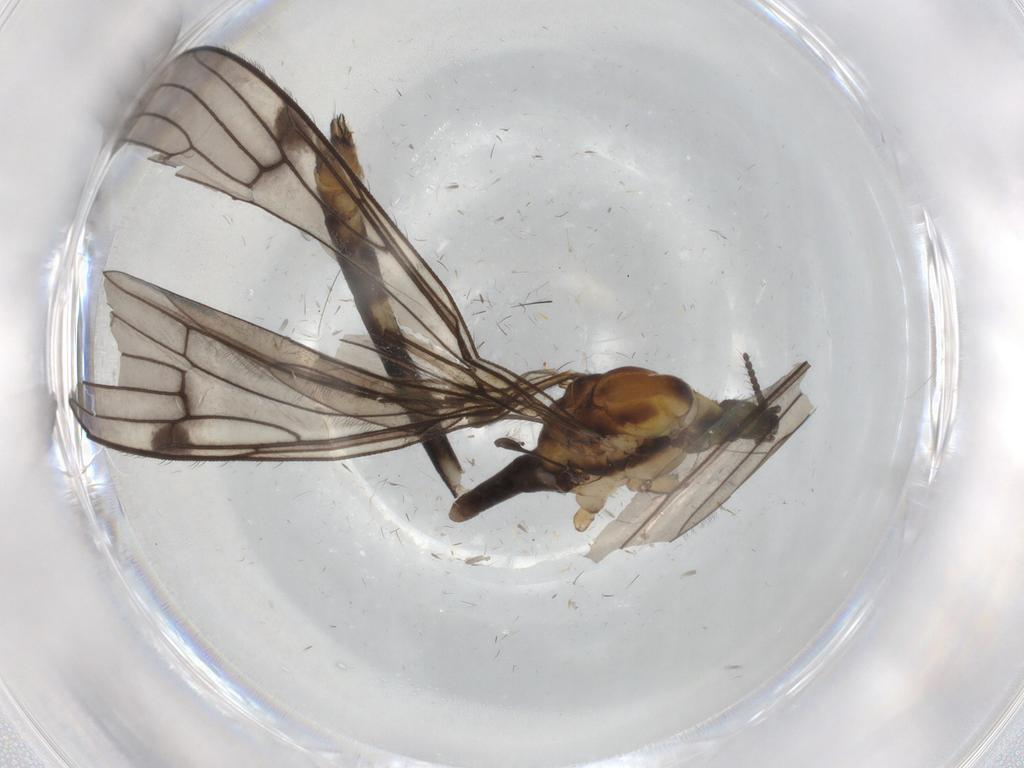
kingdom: Animalia
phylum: Arthropoda
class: Insecta
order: Diptera
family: Limoniidae
